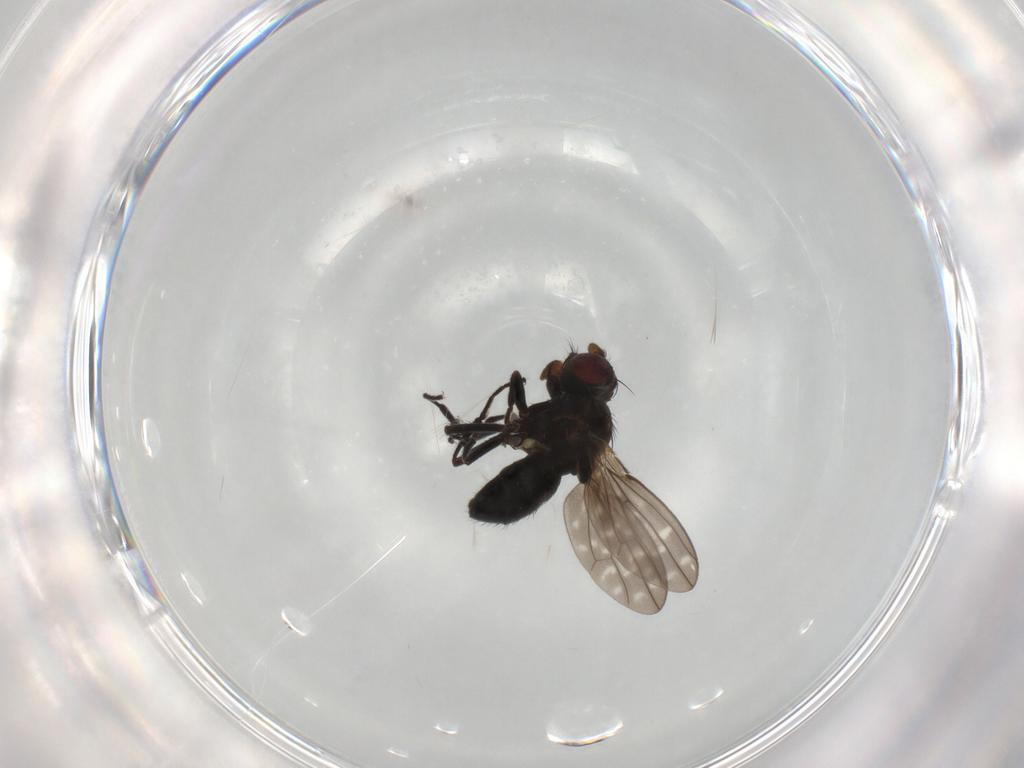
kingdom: Animalia
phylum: Arthropoda
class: Insecta
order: Diptera
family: Ephydridae
